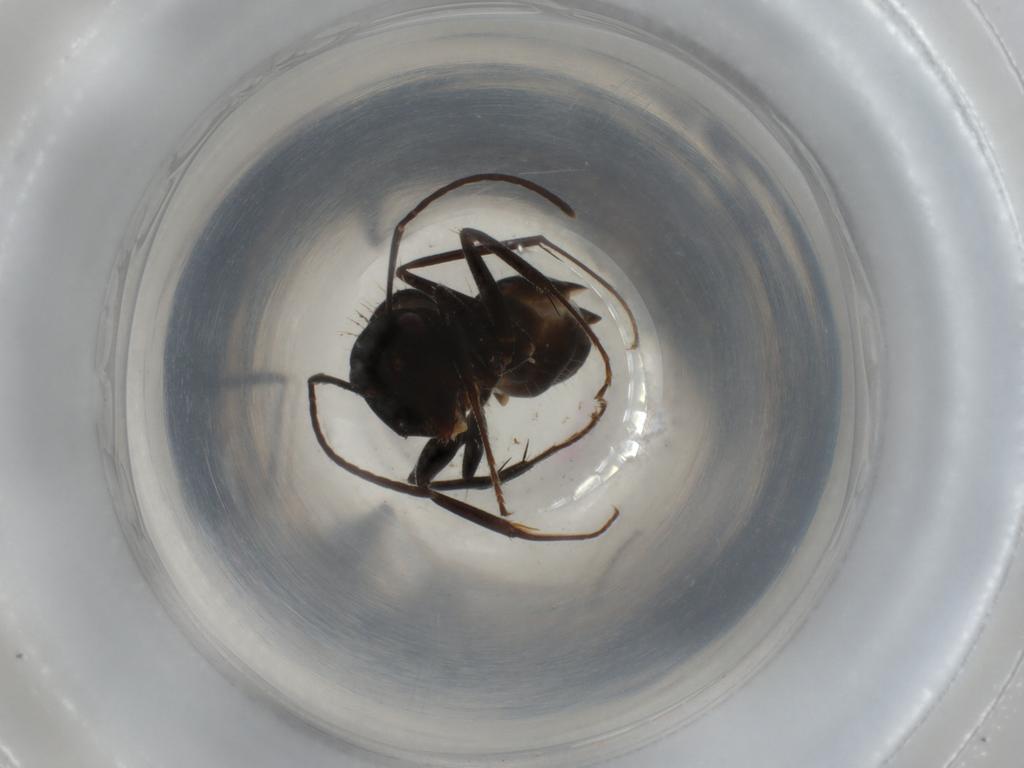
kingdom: Animalia
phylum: Arthropoda
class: Insecta
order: Hymenoptera
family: Formicidae
